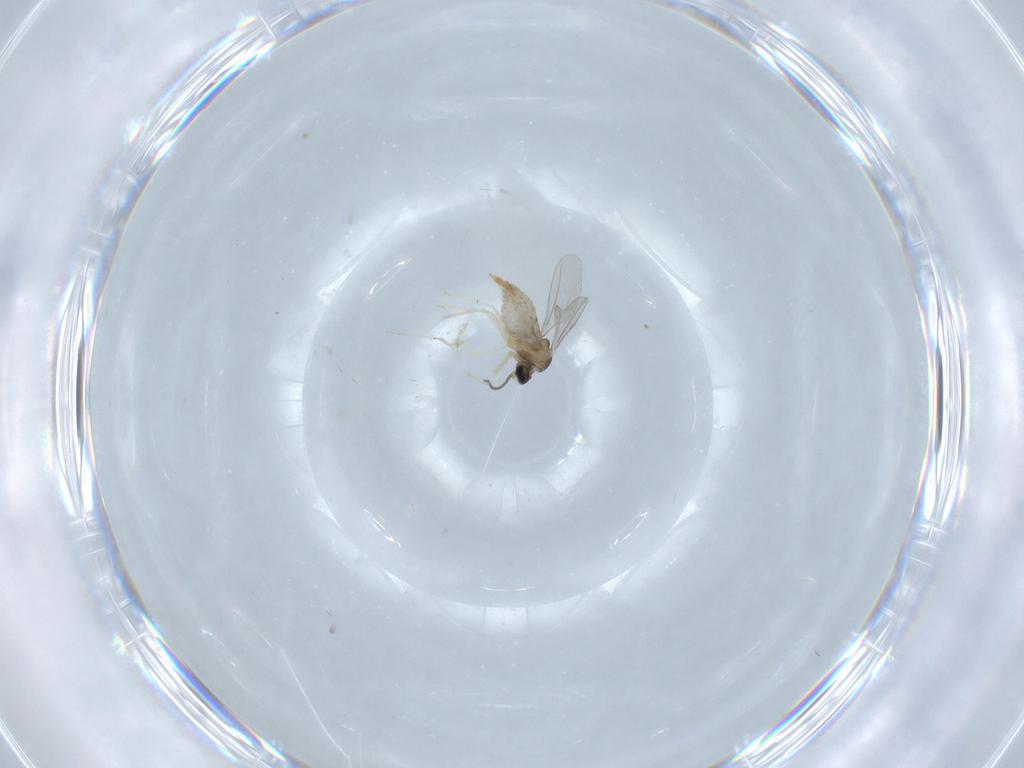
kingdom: Animalia
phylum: Arthropoda
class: Insecta
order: Diptera
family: Cecidomyiidae
